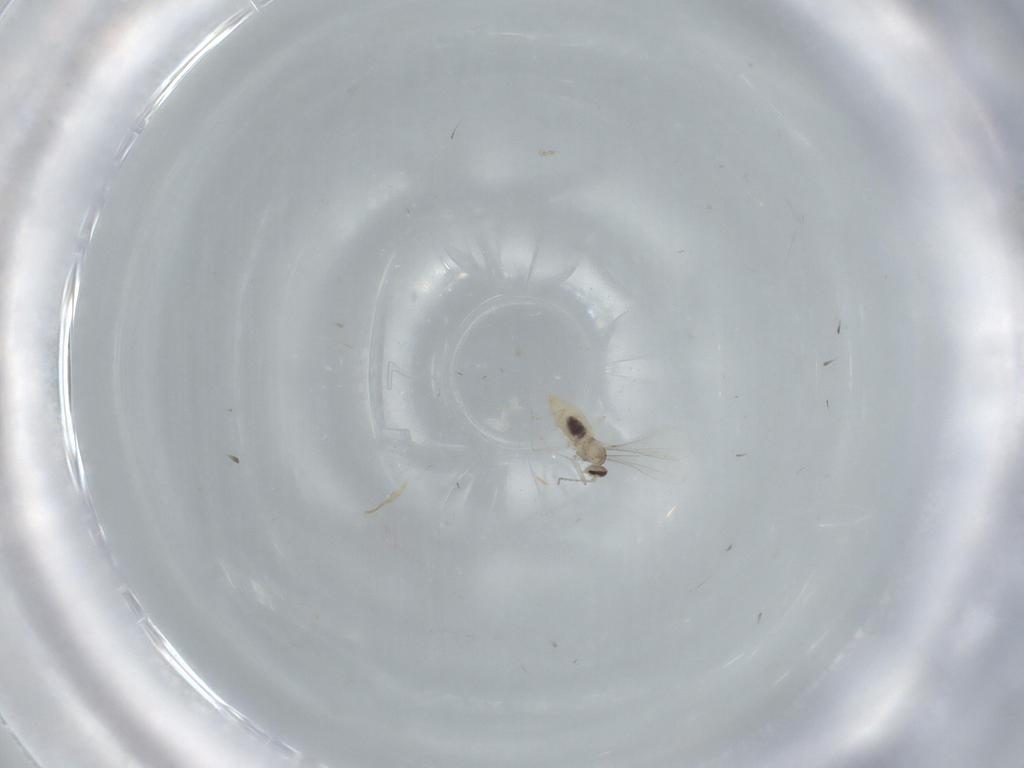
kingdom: Animalia
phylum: Arthropoda
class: Insecta
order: Diptera
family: Cecidomyiidae
